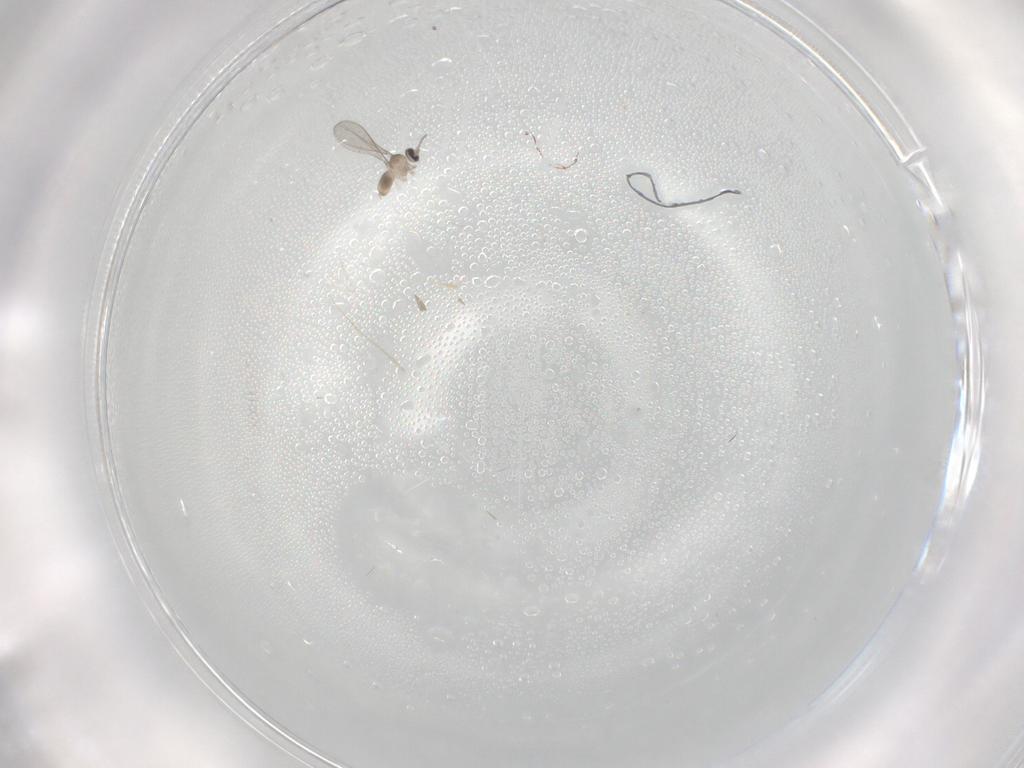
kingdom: Animalia
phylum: Arthropoda
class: Insecta
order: Diptera
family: Cecidomyiidae
